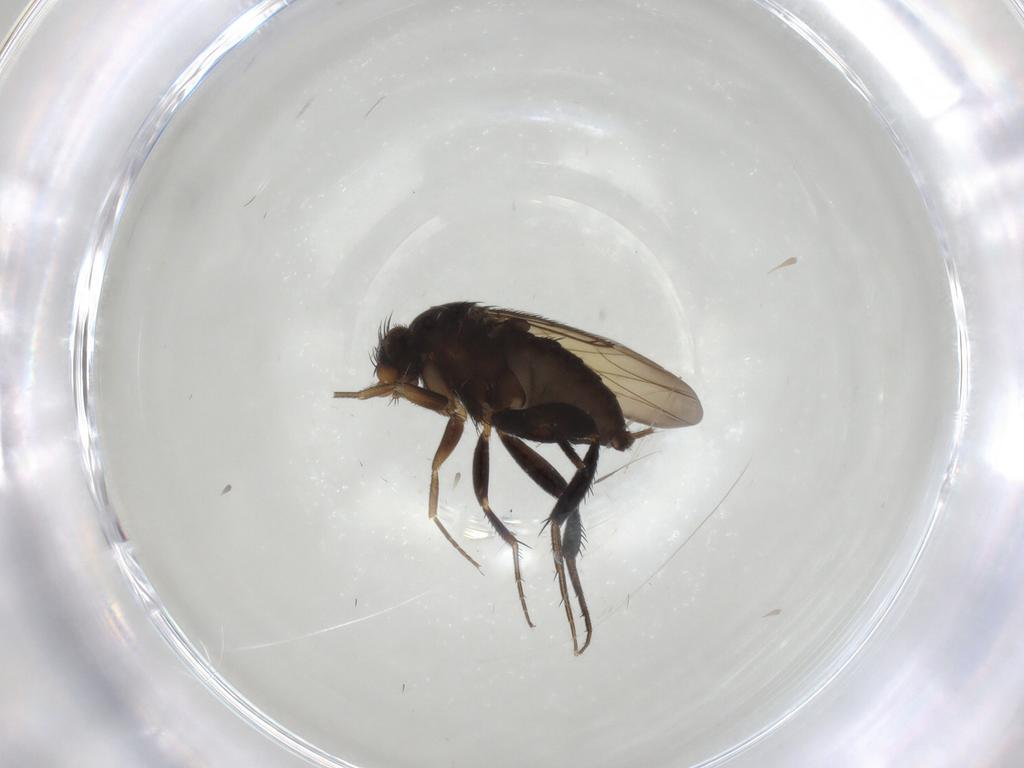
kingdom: Animalia
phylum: Arthropoda
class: Insecta
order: Diptera
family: Phoridae
